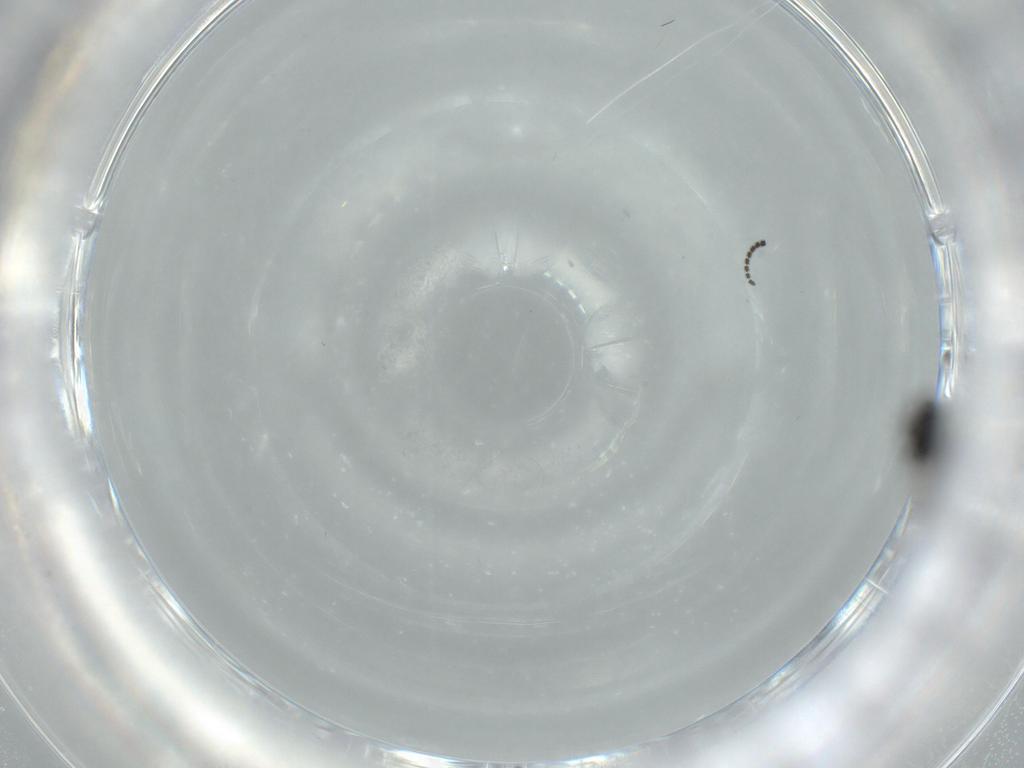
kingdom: Animalia
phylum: Arthropoda
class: Insecta
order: Diptera
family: Sciaridae
